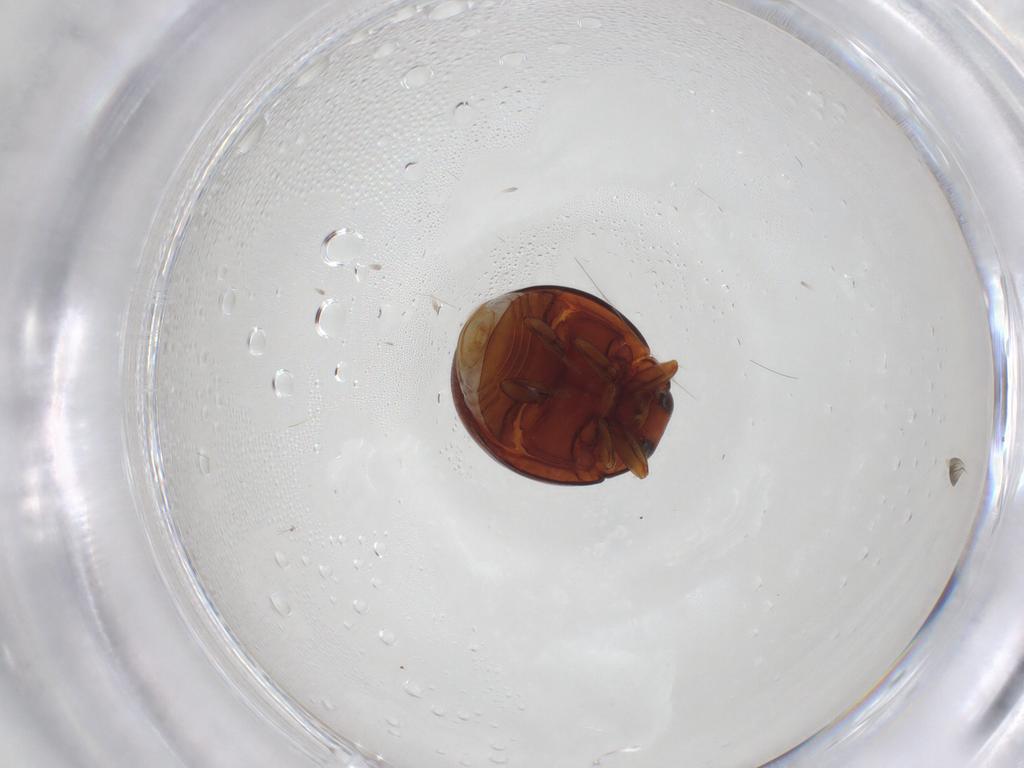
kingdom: Animalia
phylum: Arthropoda
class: Insecta
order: Coleoptera
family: Coccinellidae
